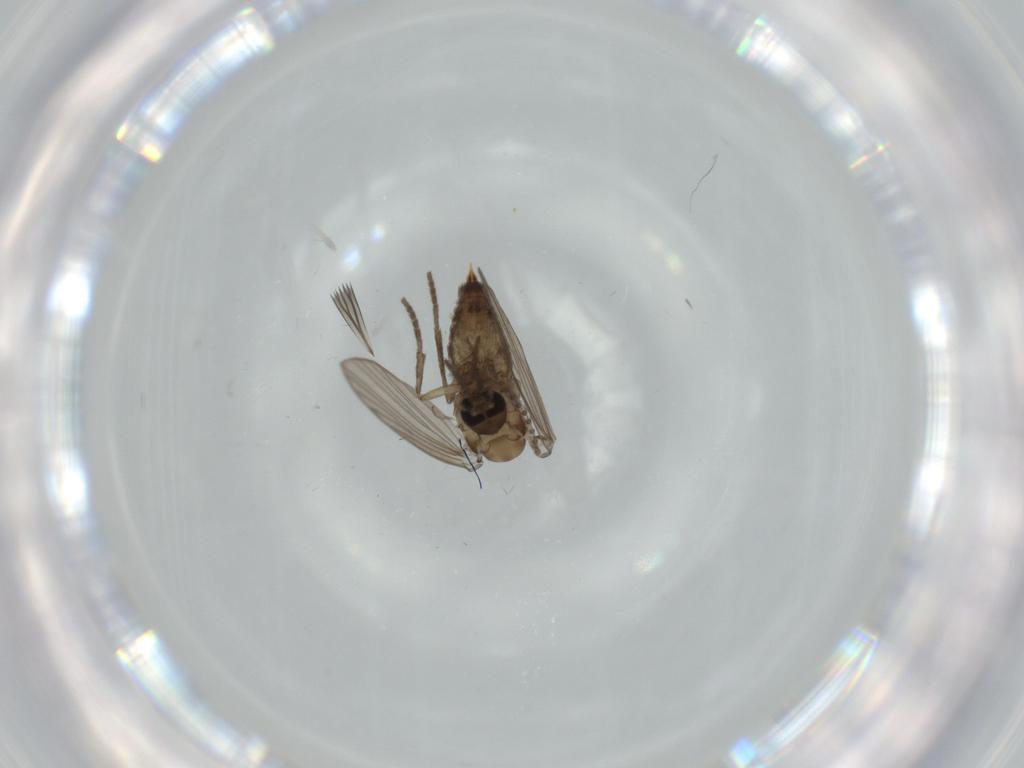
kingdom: Animalia
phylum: Arthropoda
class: Insecta
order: Diptera
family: Psychodidae
